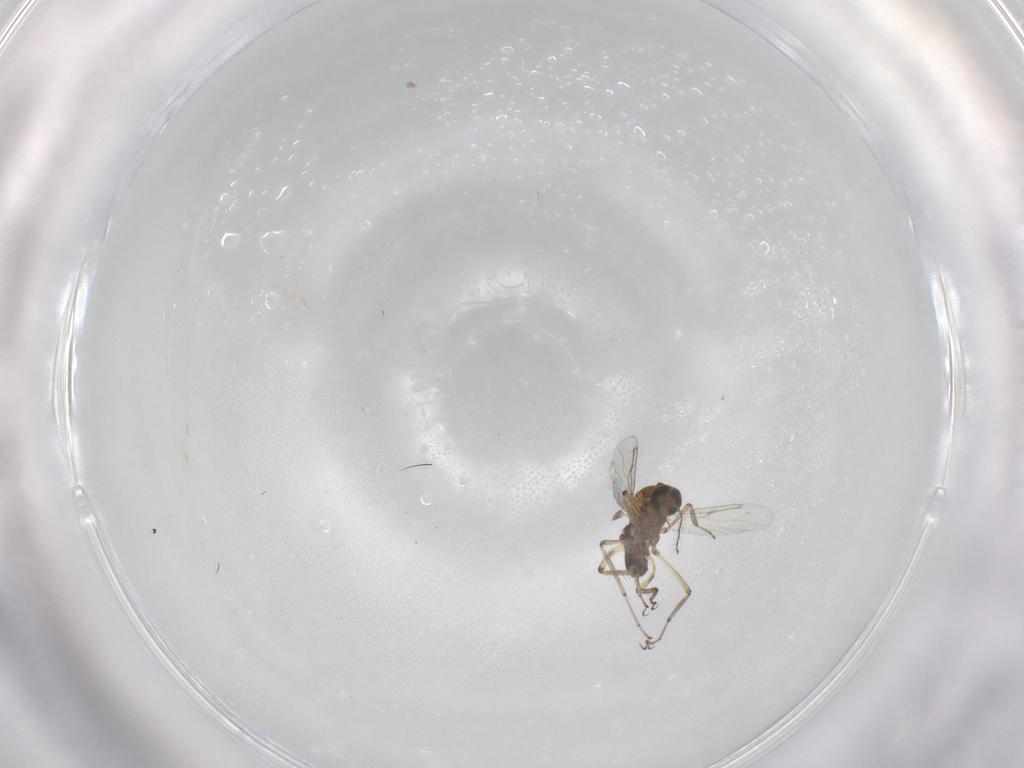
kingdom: Animalia
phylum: Arthropoda
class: Insecta
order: Diptera
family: Ceratopogonidae
